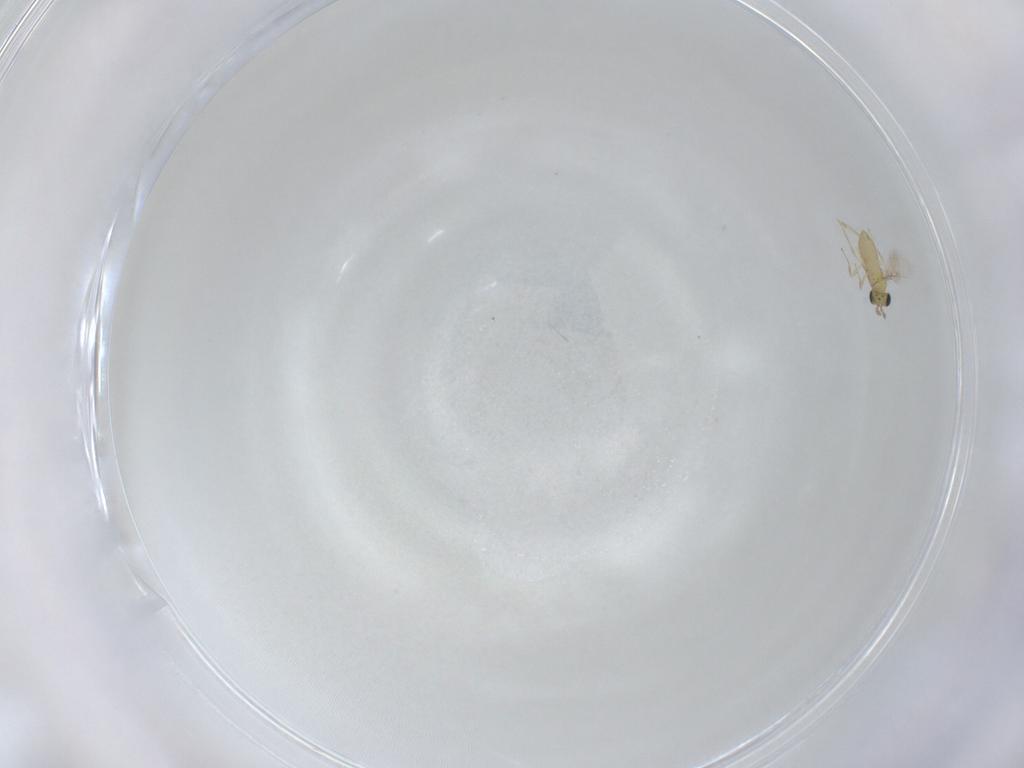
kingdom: Animalia
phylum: Arthropoda
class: Insecta
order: Hymenoptera
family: Trichogrammatidae
